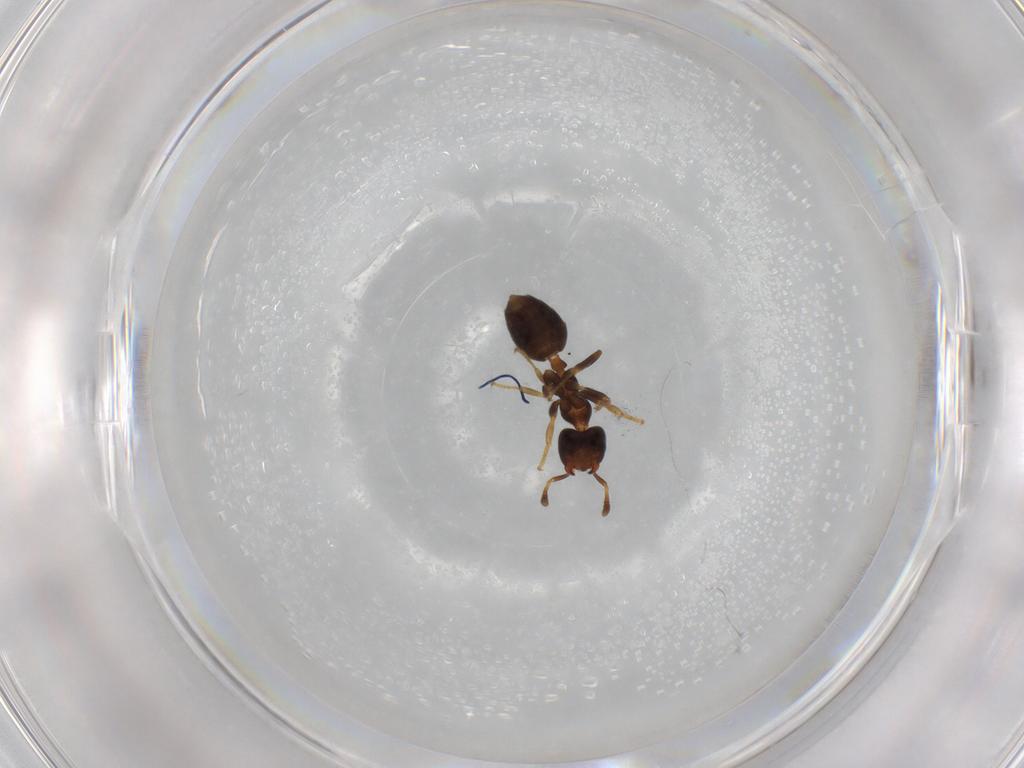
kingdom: Animalia
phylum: Arthropoda
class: Insecta
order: Hymenoptera
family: Formicidae
